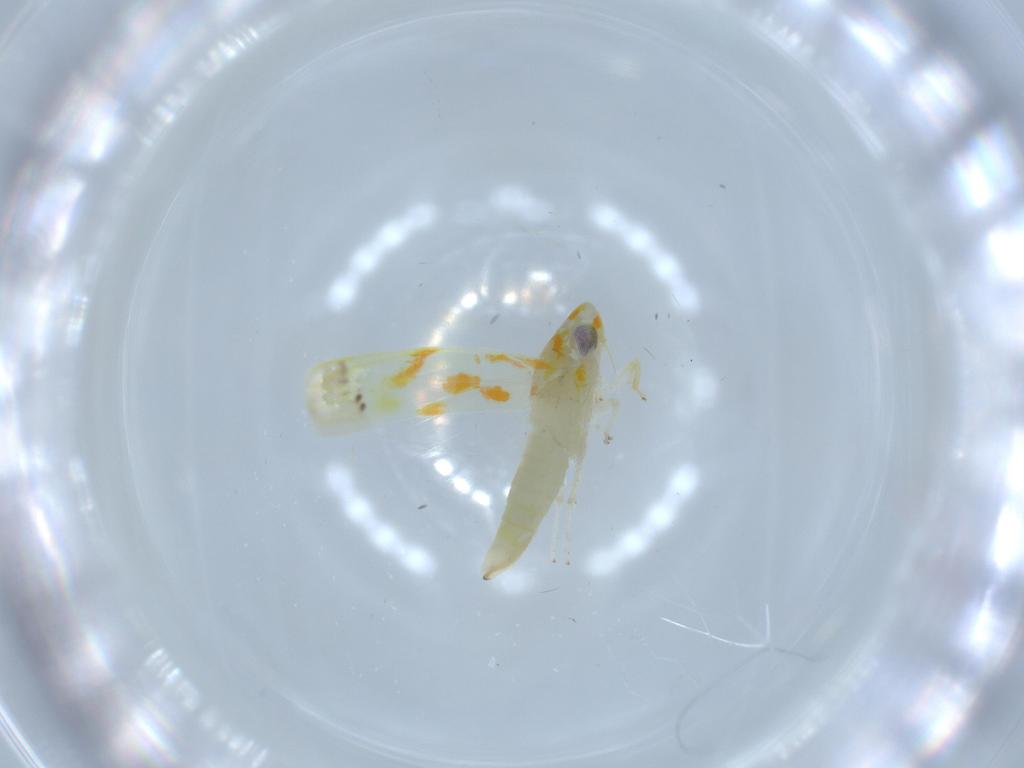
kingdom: Animalia
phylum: Arthropoda
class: Insecta
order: Hemiptera
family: Cicadellidae
